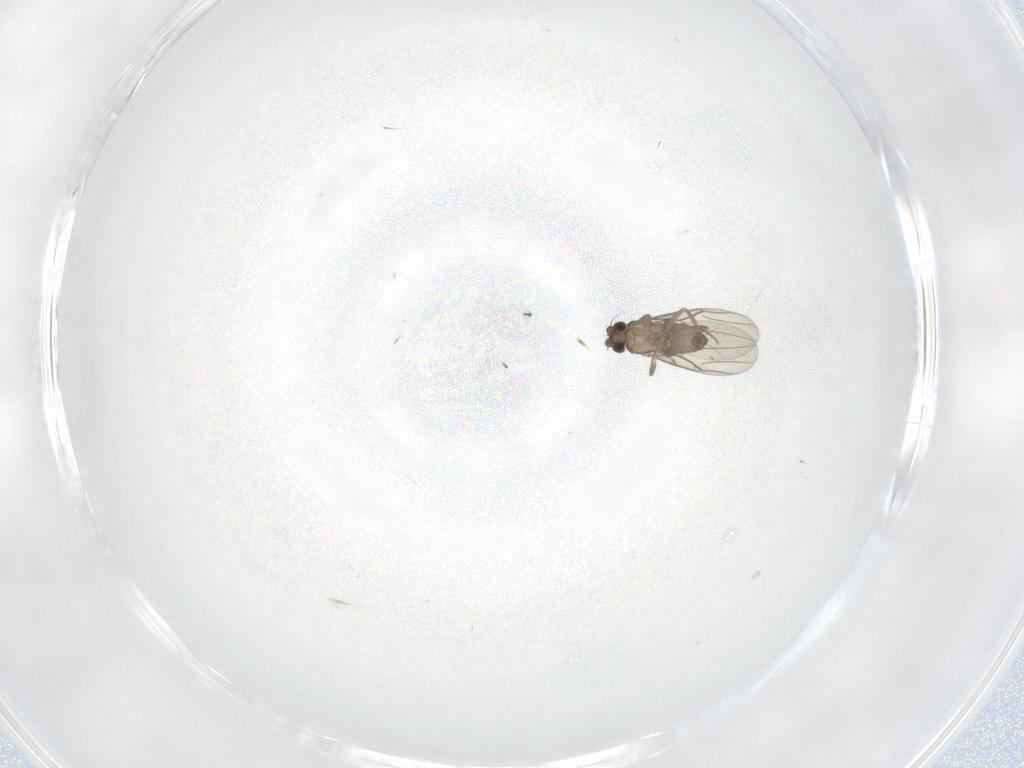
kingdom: Animalia
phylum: Arthropoda
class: Insecta
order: Diptera
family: Phoridae
